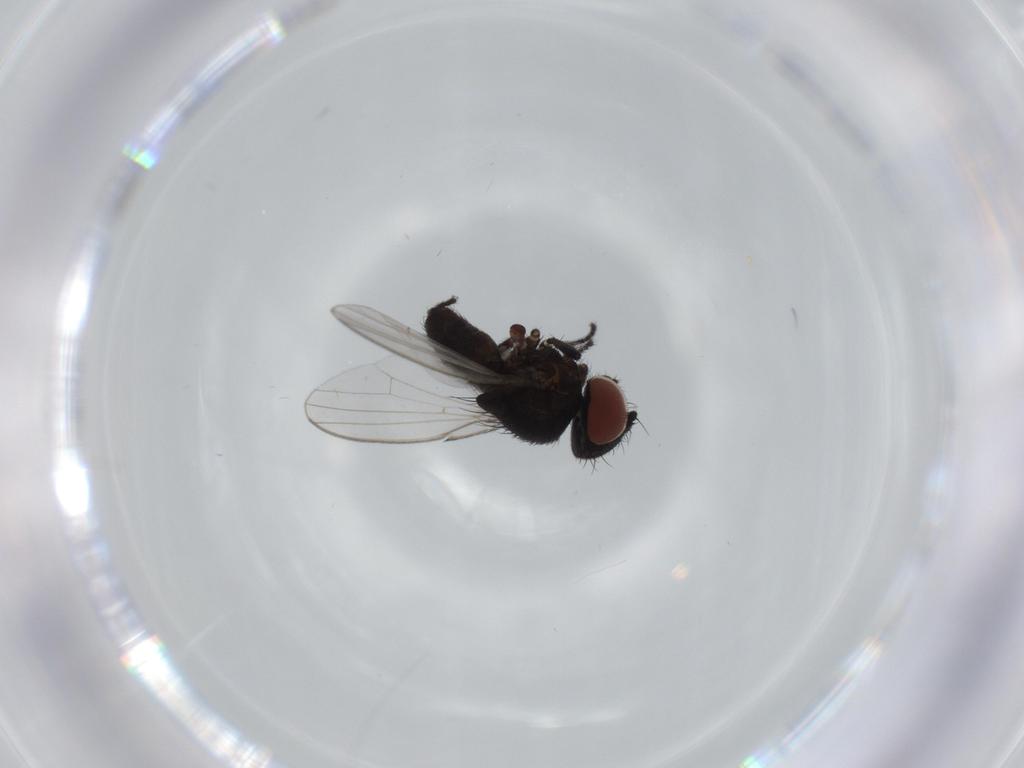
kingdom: Animalia
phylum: Arthropoda
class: Insecta
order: Diptera
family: Milichiidae
